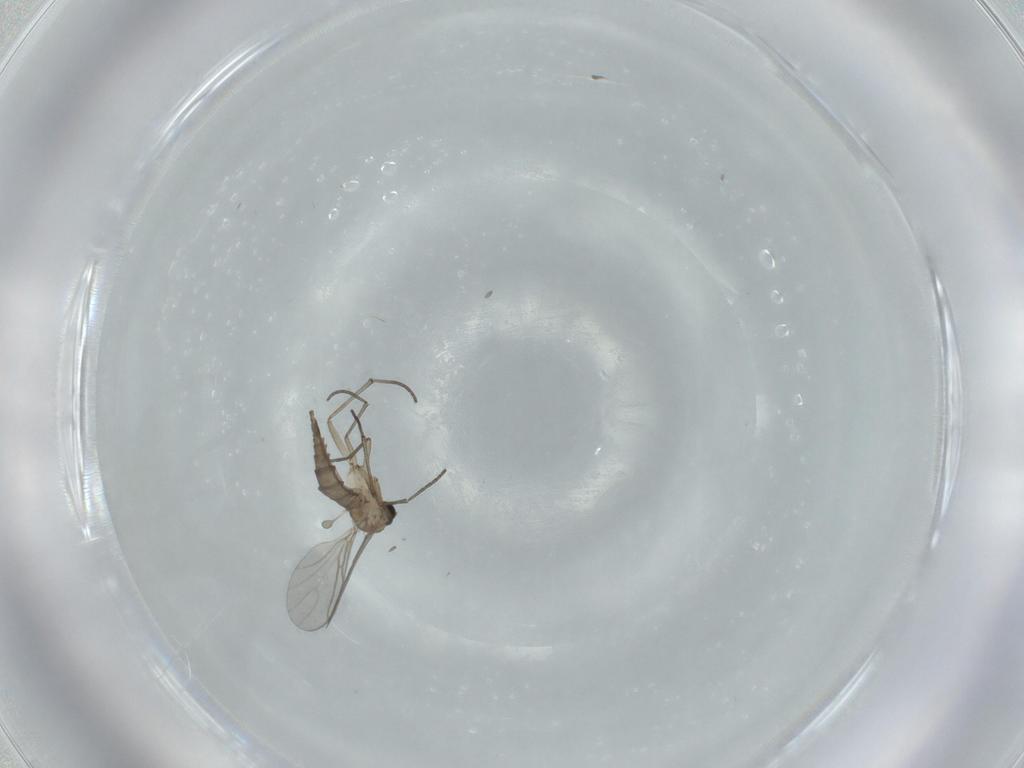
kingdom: Animalia
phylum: Arthropoda
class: Insecta
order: Diptera
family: Sciaridae
